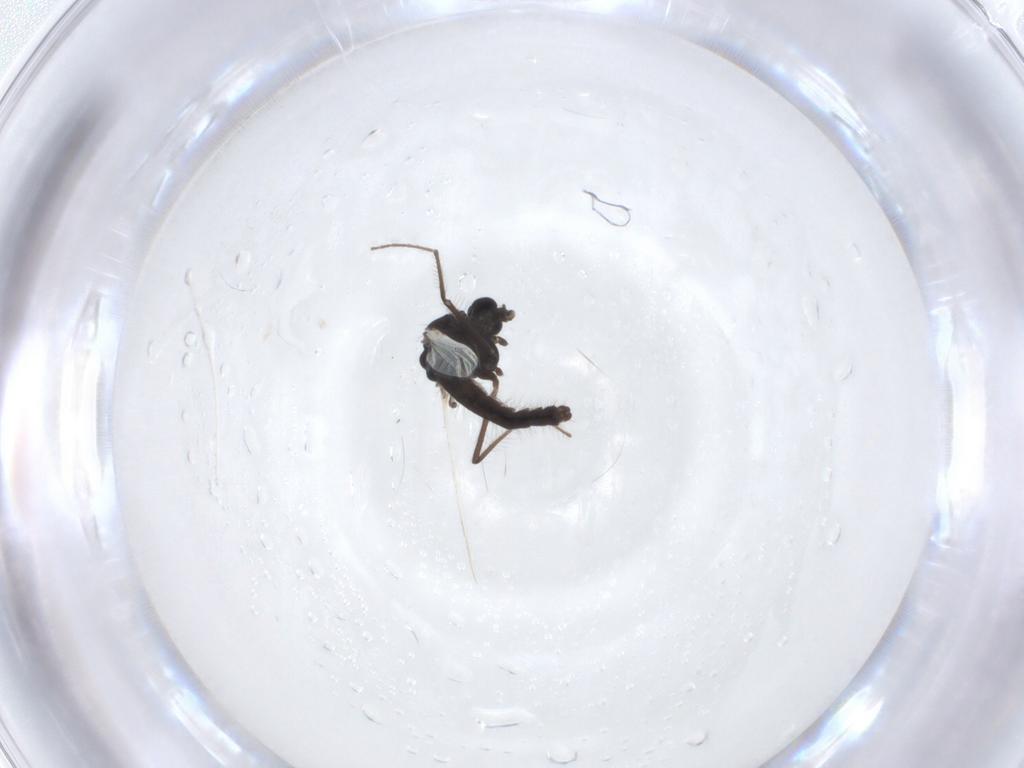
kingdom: Animalia
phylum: Arthropoda
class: Insecta
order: Diptera
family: Chironomidae
